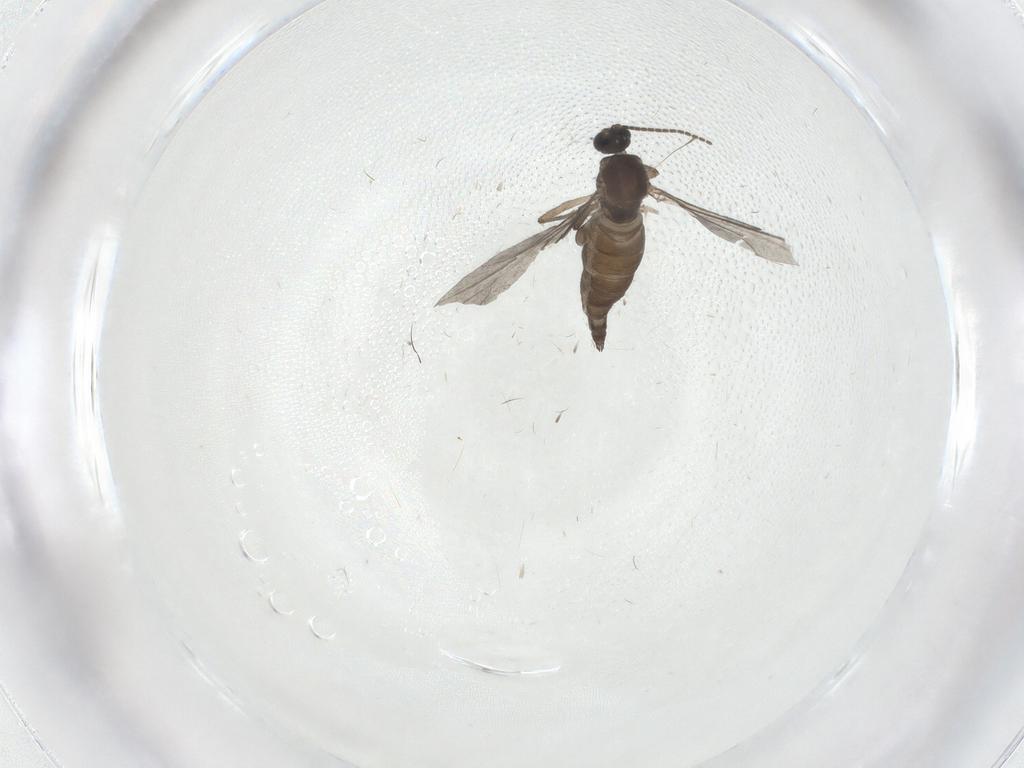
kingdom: Animalia
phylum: Arthropoda
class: Insecta
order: Diptera
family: Sciaridae
